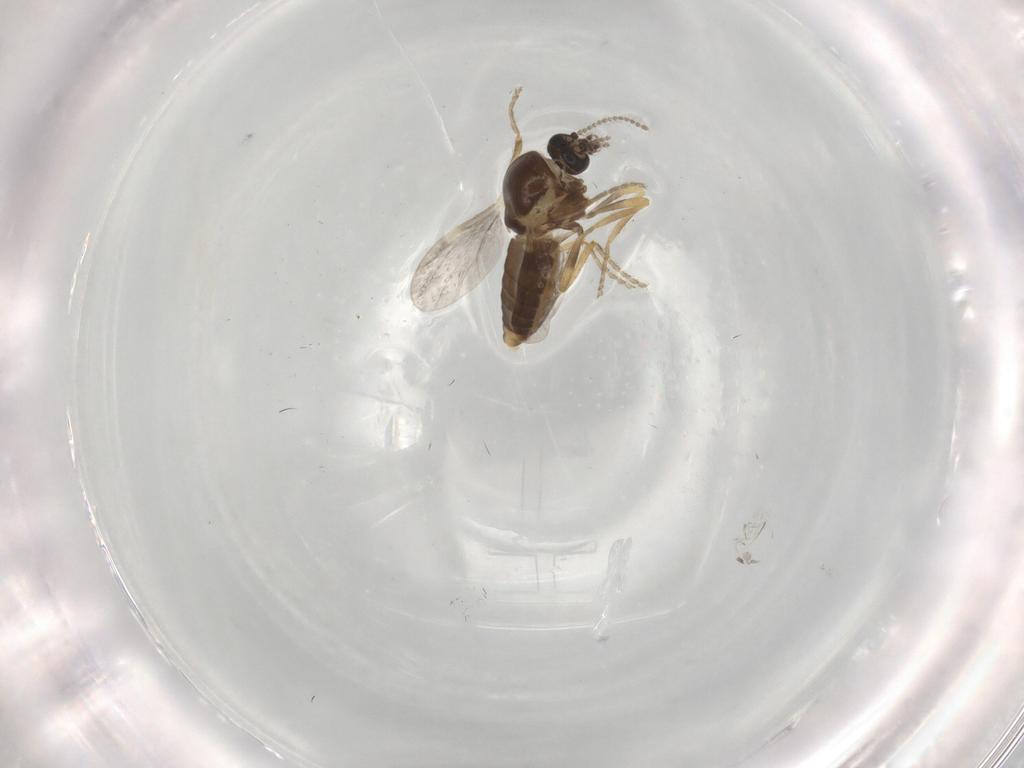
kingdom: Animalia
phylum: Arthropoda
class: Insecta
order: Diptera
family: Ceratopogonidae
